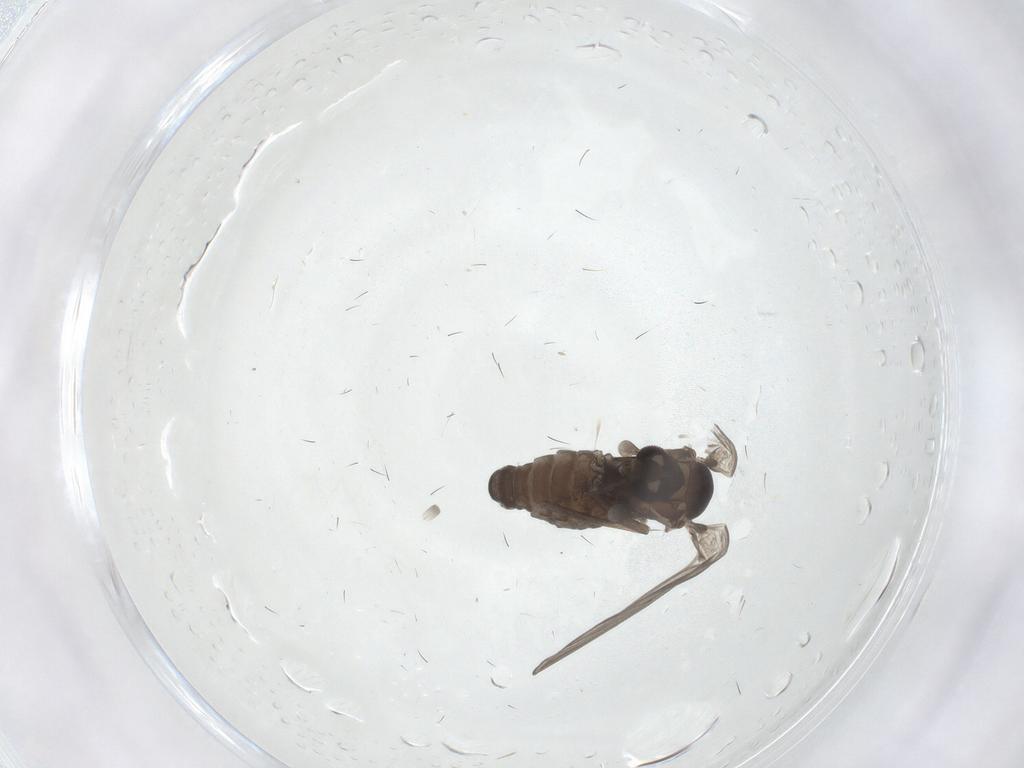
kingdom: Animalia
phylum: Arthropoda
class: Insecta
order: Diptera
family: Psychodidae
